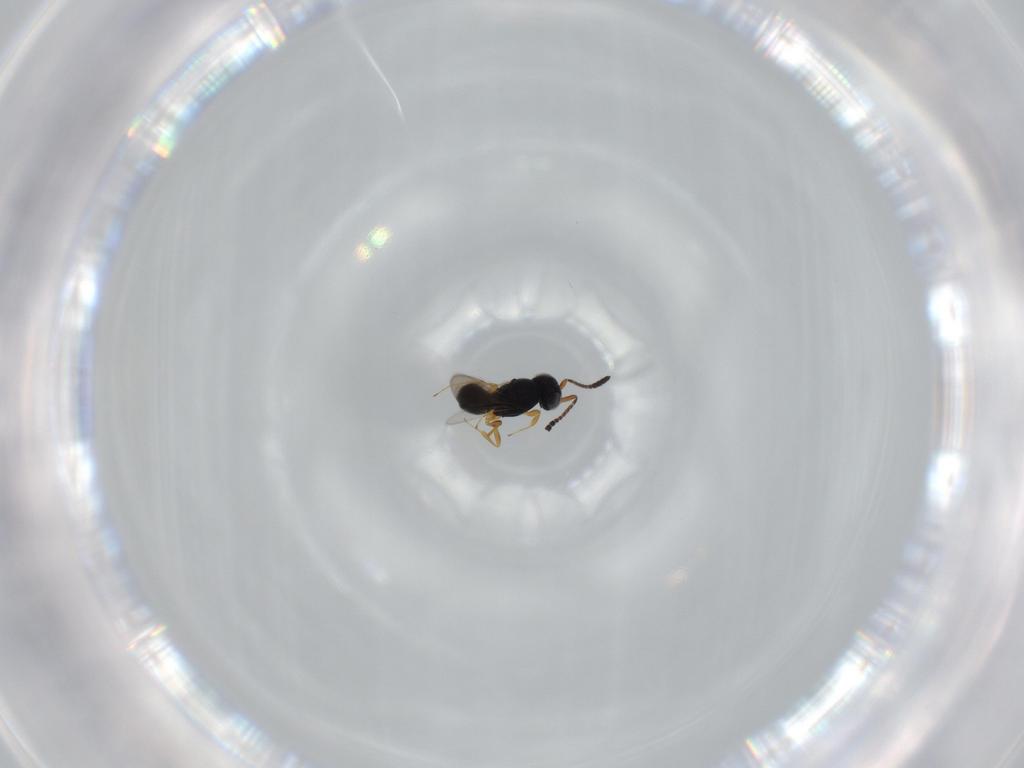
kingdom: Animalia
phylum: Arthropoda
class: Insecta
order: Hymenoptera
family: Scelionidae
